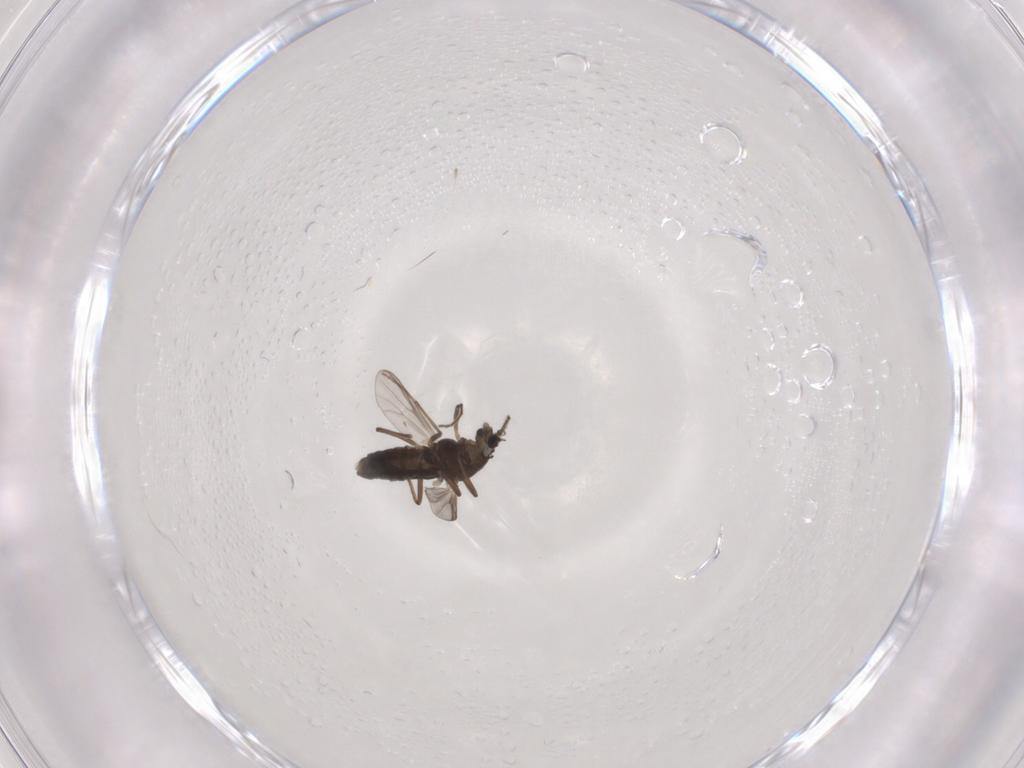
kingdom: Animalia
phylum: Arthropoda
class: Insecta
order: Diptera
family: Chironomidae
